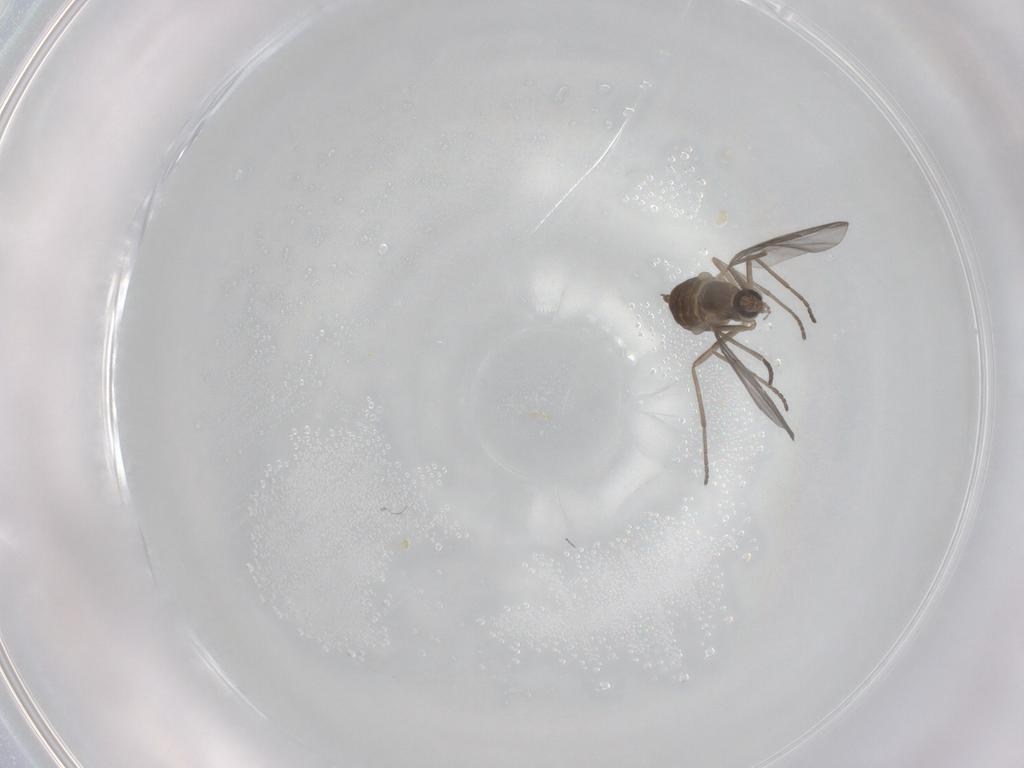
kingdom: Animalia
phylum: Arthropoda
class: Insecta
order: Diptera
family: Cecidomyiidae
